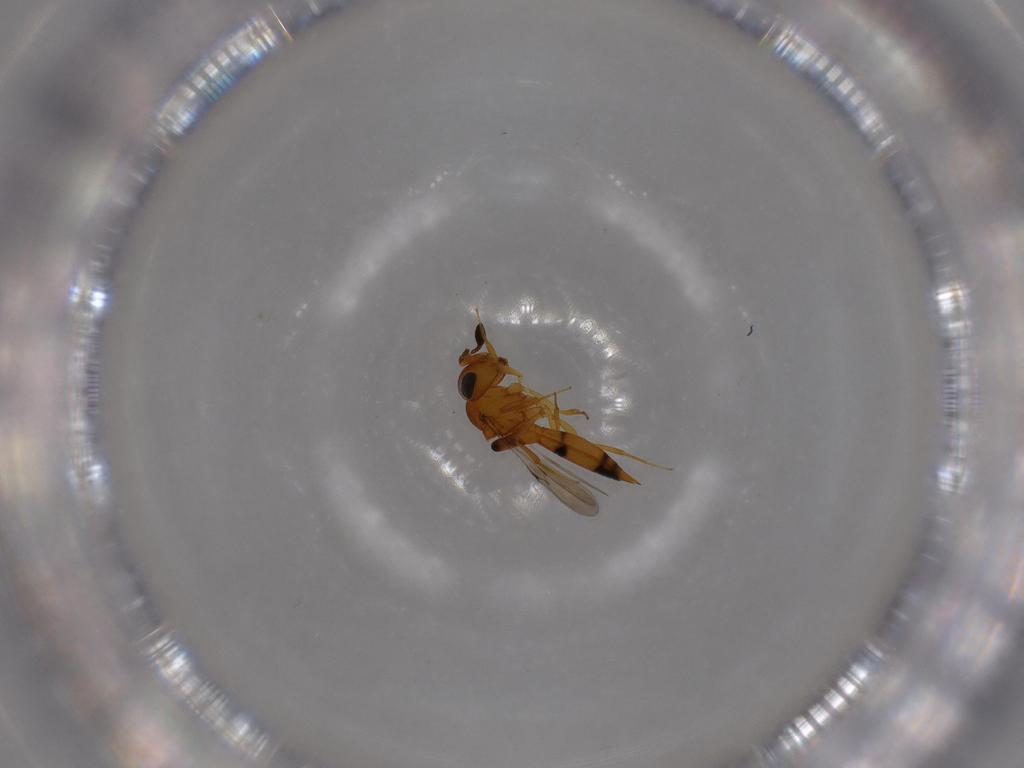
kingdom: Animalia
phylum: Arthropoda
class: Insecta
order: Hymenoptera
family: Scelionidae
